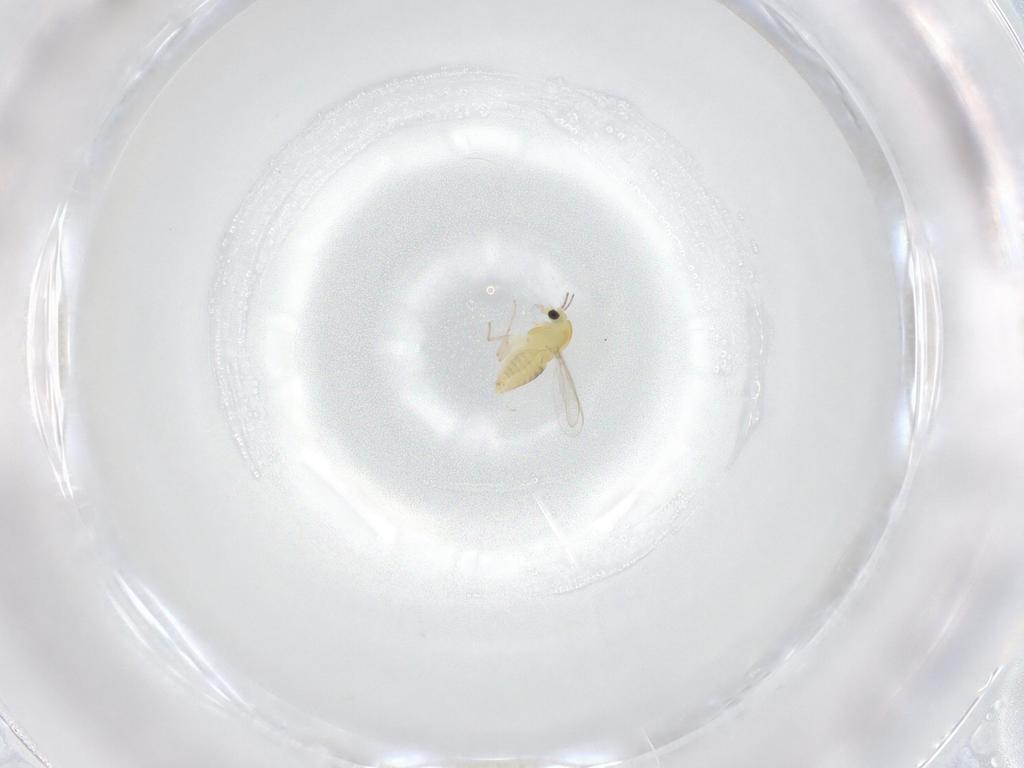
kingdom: Animalia
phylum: Arthropoda
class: Insecta
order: Diptera
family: Chironomidae
